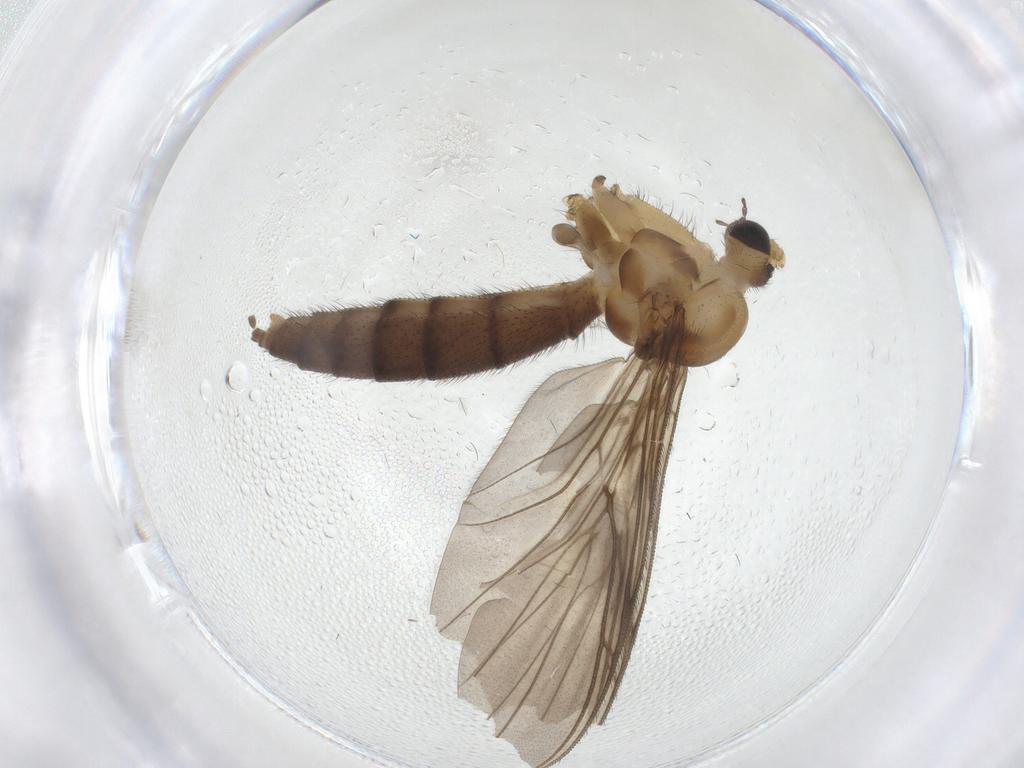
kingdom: Animalia
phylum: Arthropoda
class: Insecta
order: Diptera
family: Keroplatidae
